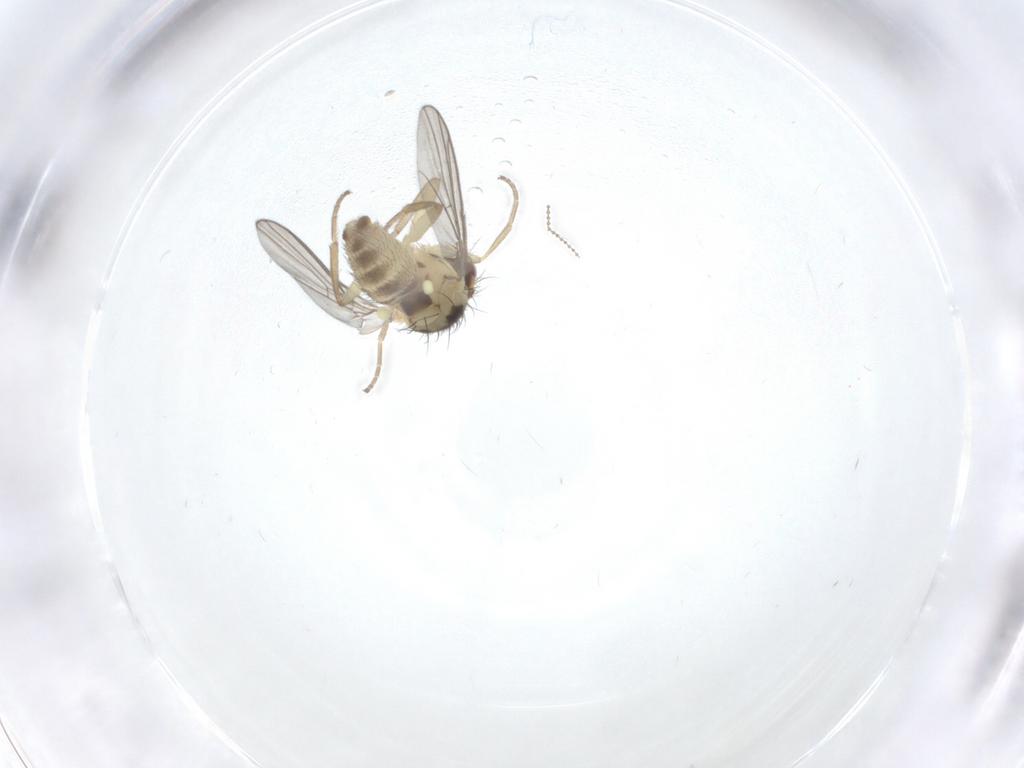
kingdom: Animalia
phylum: Arthropoda
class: Insecta
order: Diptera
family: Agromyzidae
